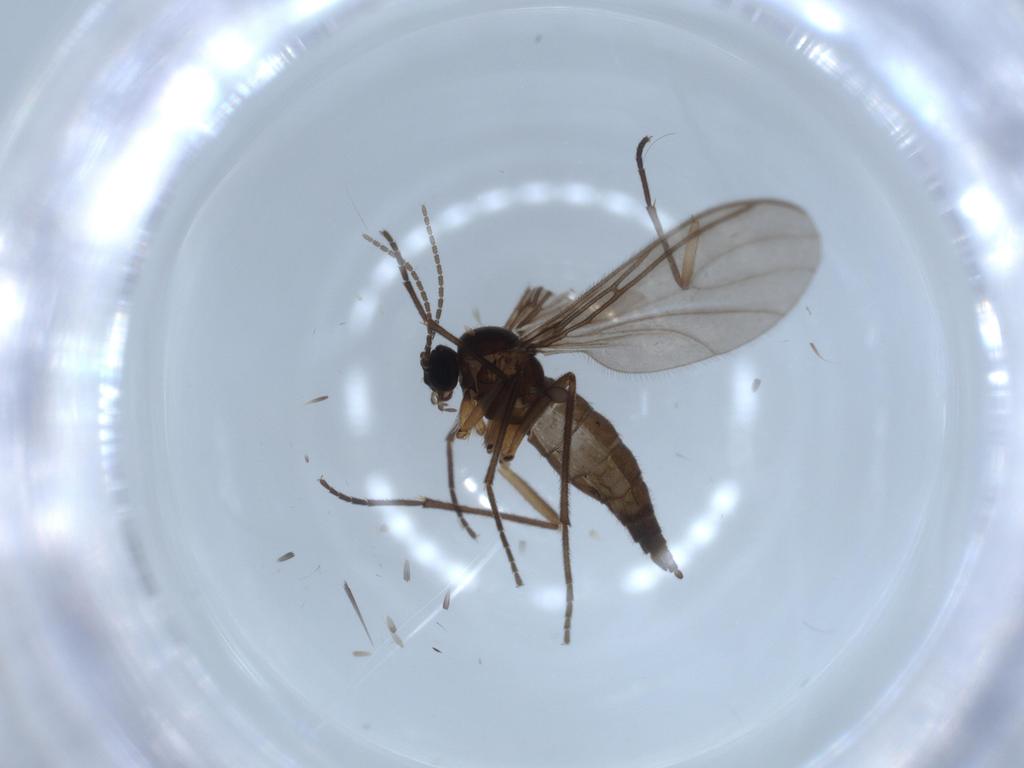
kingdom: Animalia
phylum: Arthropoda
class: Insecta
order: Diptera
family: Sciaridae
